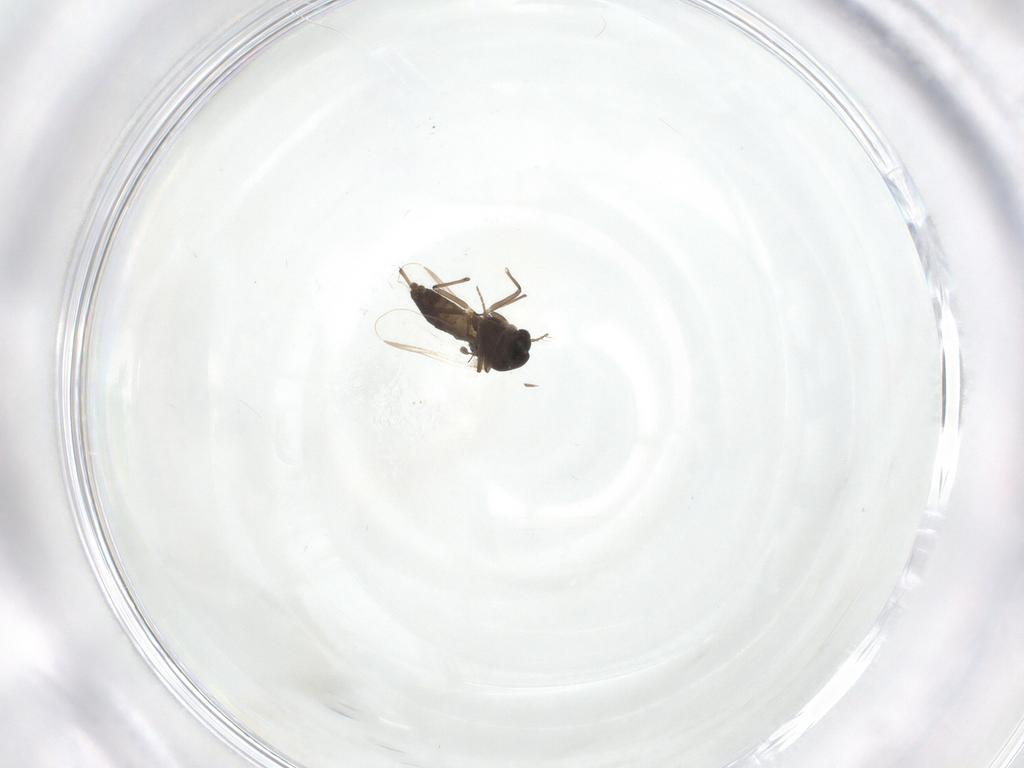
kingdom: Animalia
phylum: Arthropoda
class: Insecta
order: Diptera
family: Chironomidae
